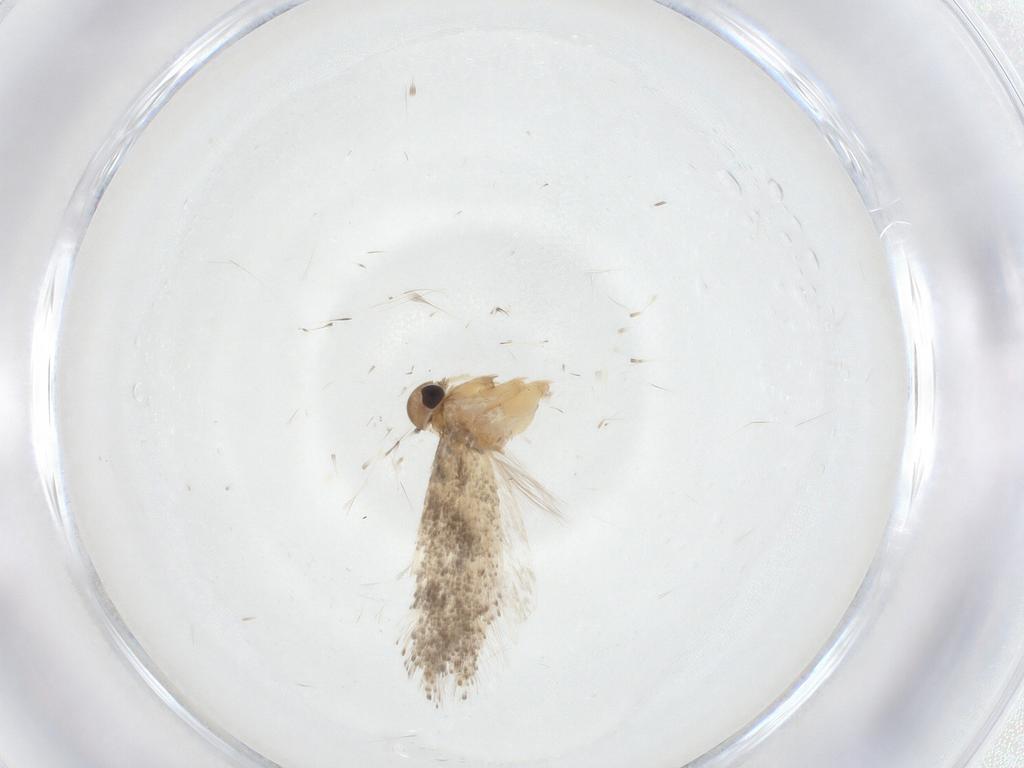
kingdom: Animalia
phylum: Arthropoda
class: Insecta
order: Lepidoptera
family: Gelechiidae
